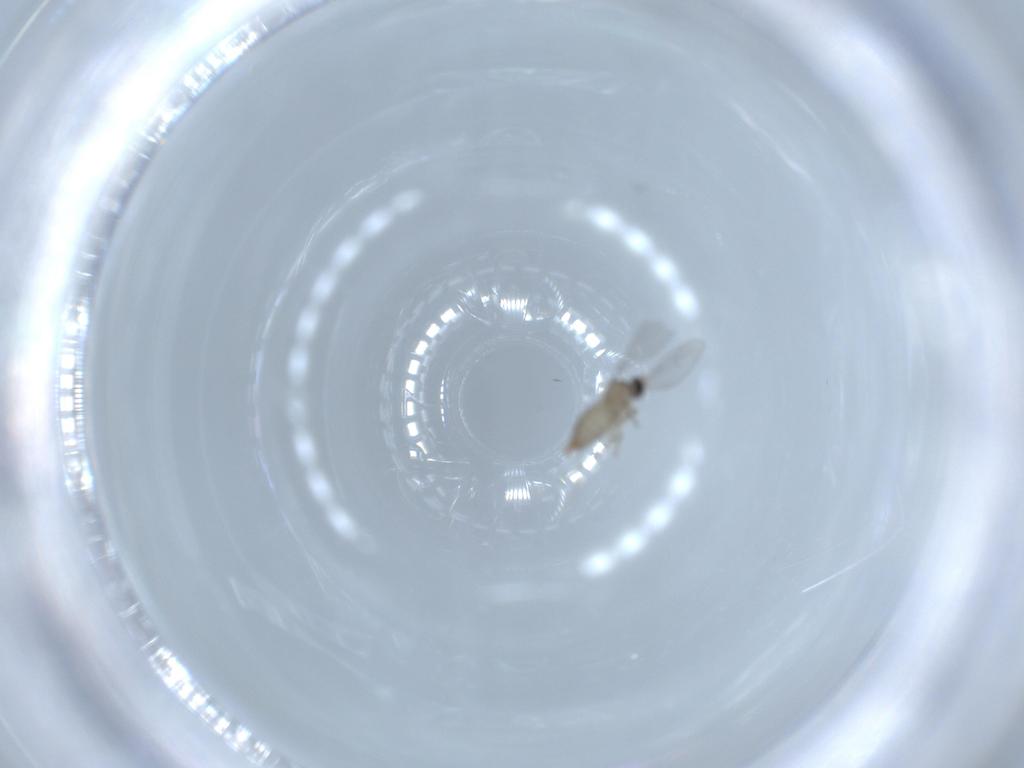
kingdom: Animalia
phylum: Arthropoda
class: Insecta
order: Diptera
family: Cecidomyiidae
